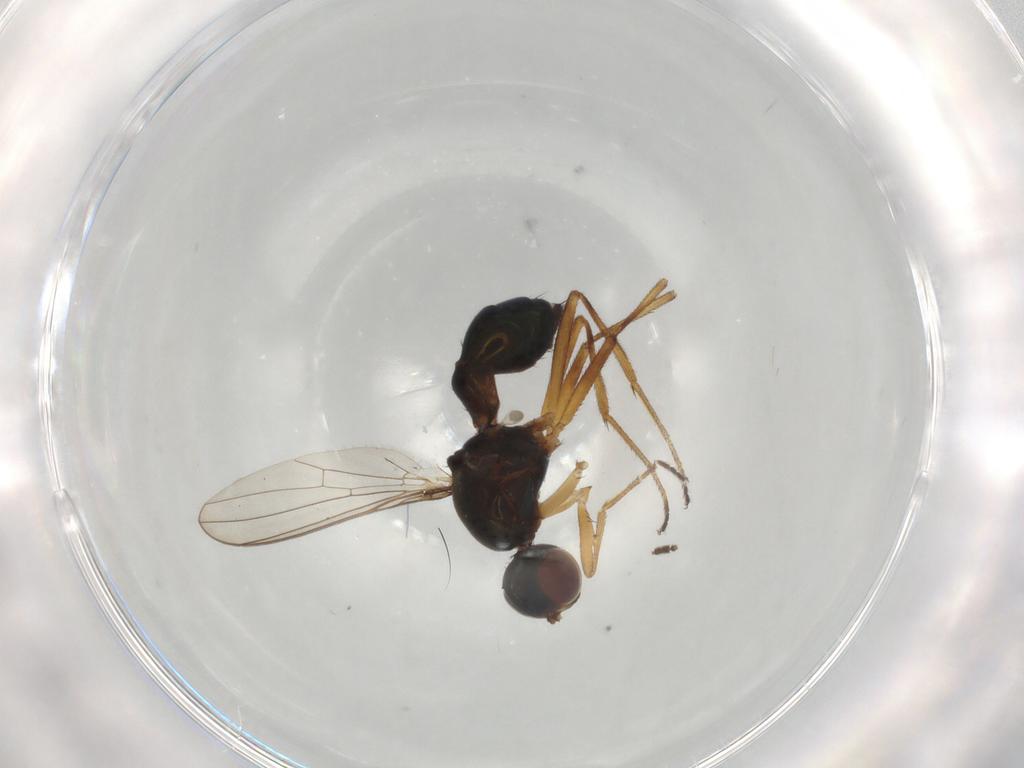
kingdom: Animalia
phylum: Arthropoda
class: Insecta
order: Diptera
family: Sepsidae
